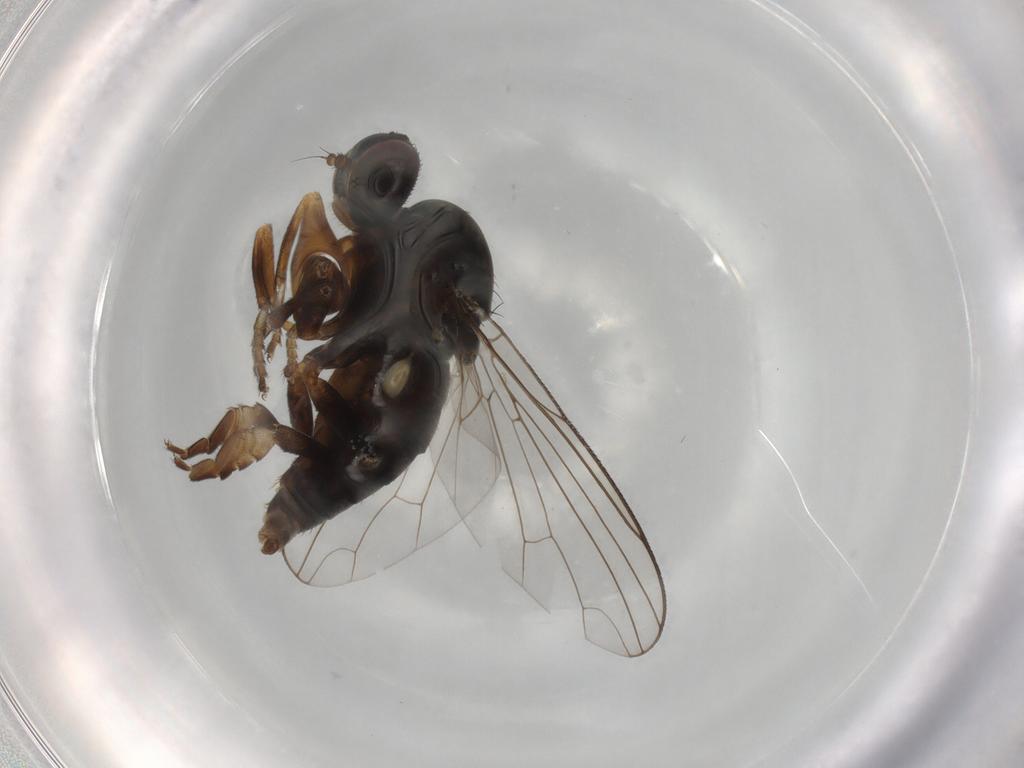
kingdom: Animalia
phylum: Arthropoda
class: Insecta
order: Diptera
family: Platypezidae
